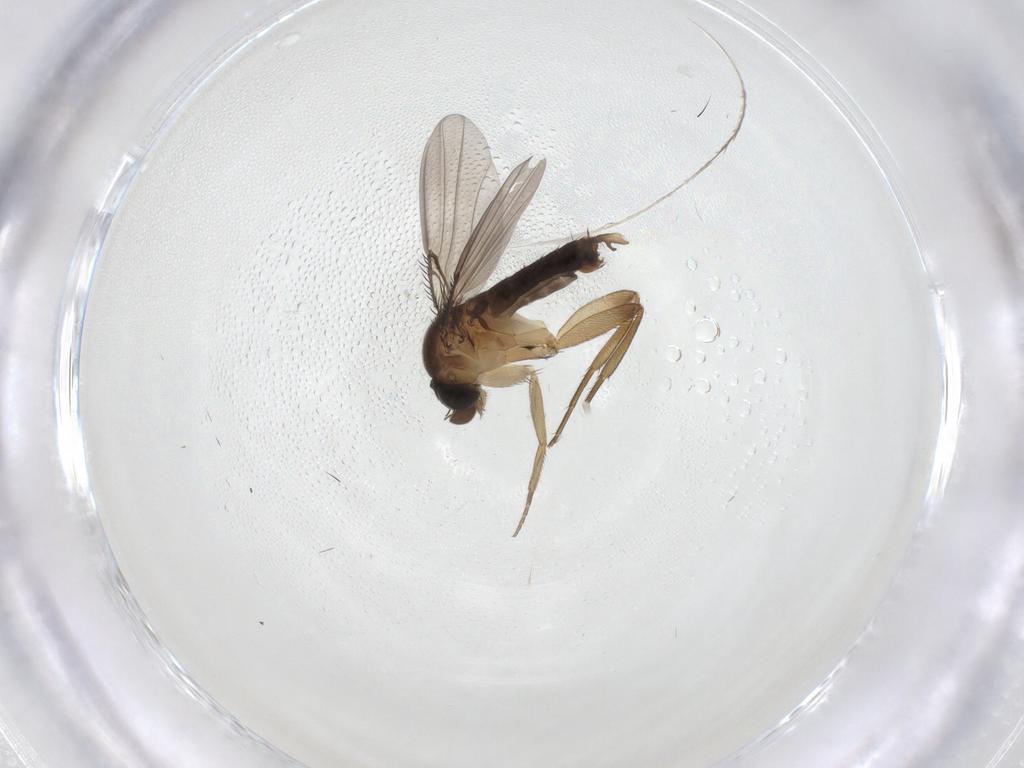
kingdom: Animalia
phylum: Arthropoda
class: Insecta
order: Diptera
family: Phoridae
